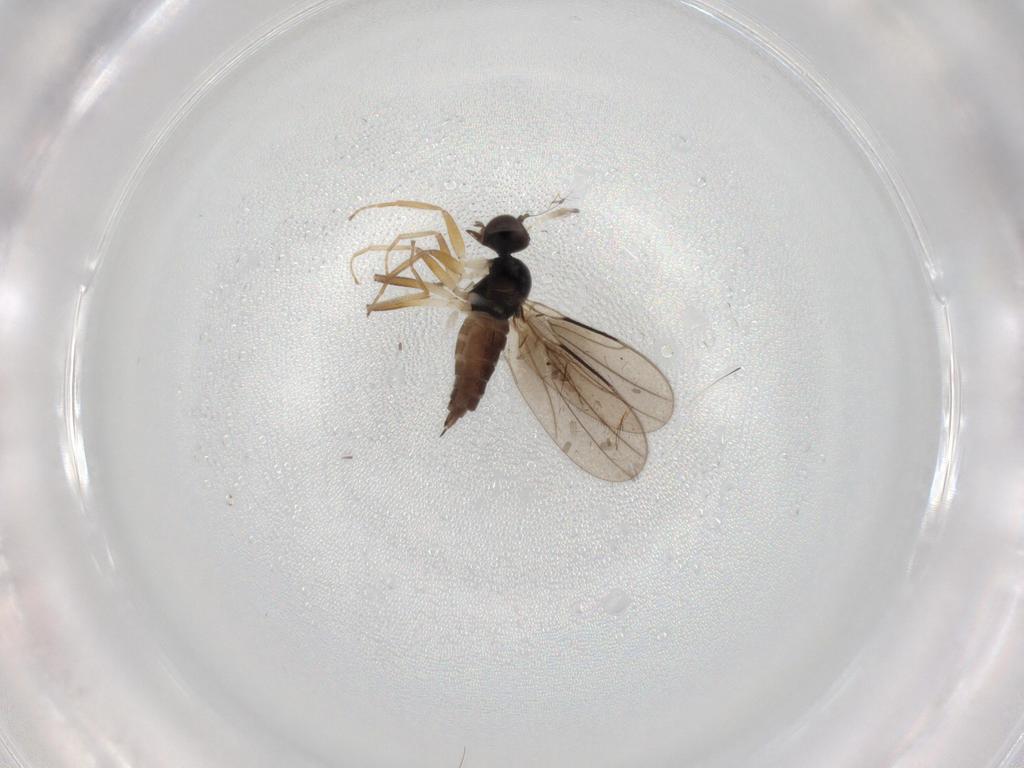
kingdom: Animalia
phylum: Arthropoda
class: Insecta
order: Diptera
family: Hybotidae
